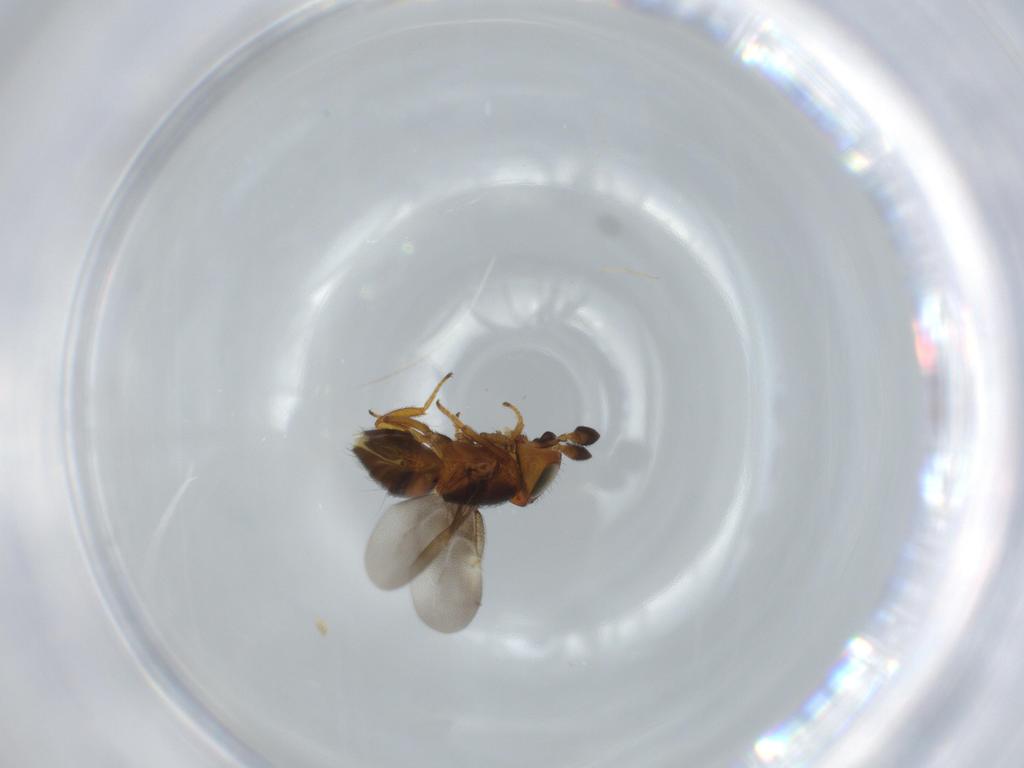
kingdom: Animalia
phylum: Arthropoda
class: Insecta
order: Hymenoptera
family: Encyrtidae
